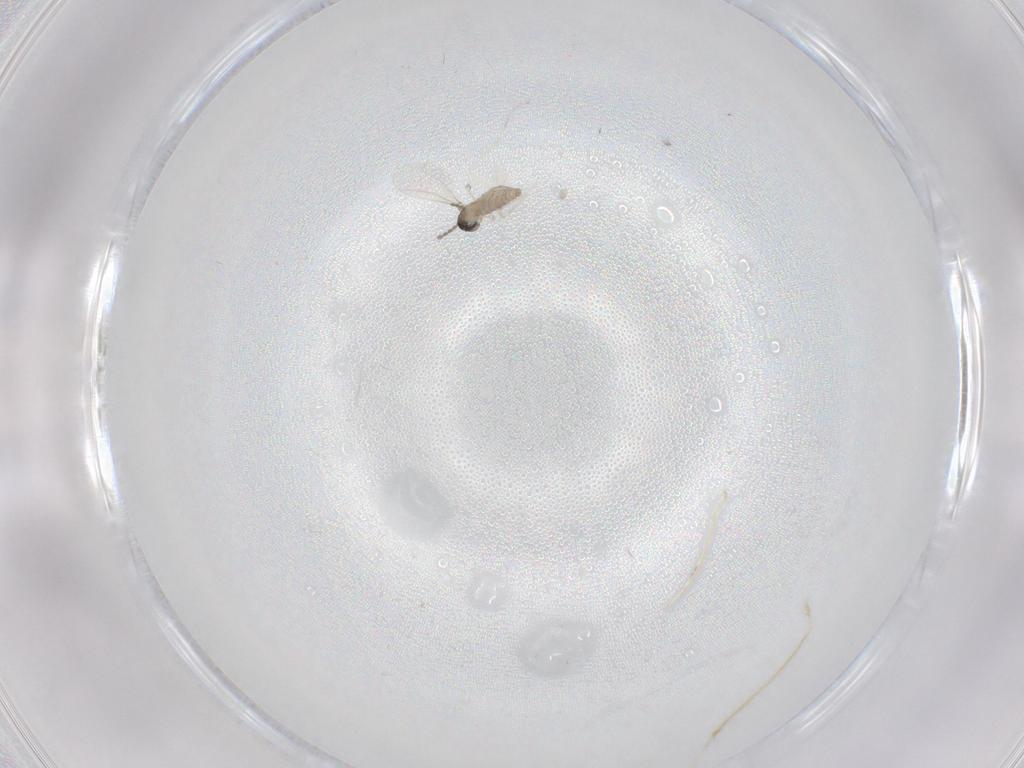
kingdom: Animalia
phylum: Arthropoda
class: Insecta
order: Diptera
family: Cecidomyiidae
